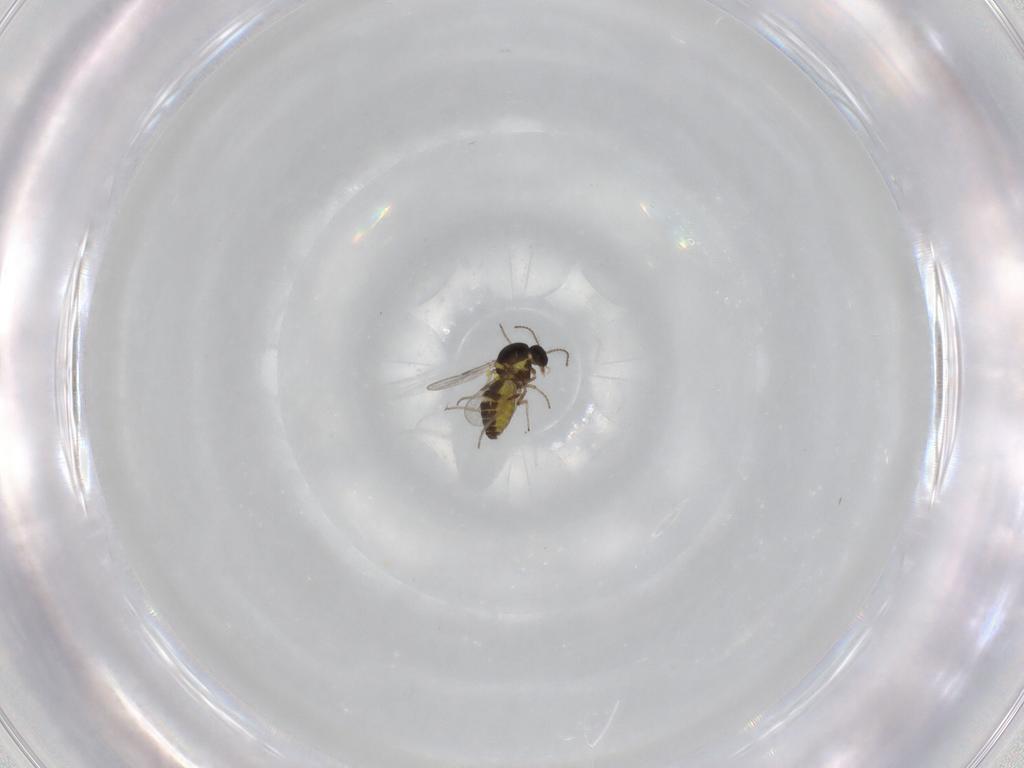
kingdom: Animalia
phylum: Arthropoda
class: Insecta
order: Diptera
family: Ceratopogonidae
